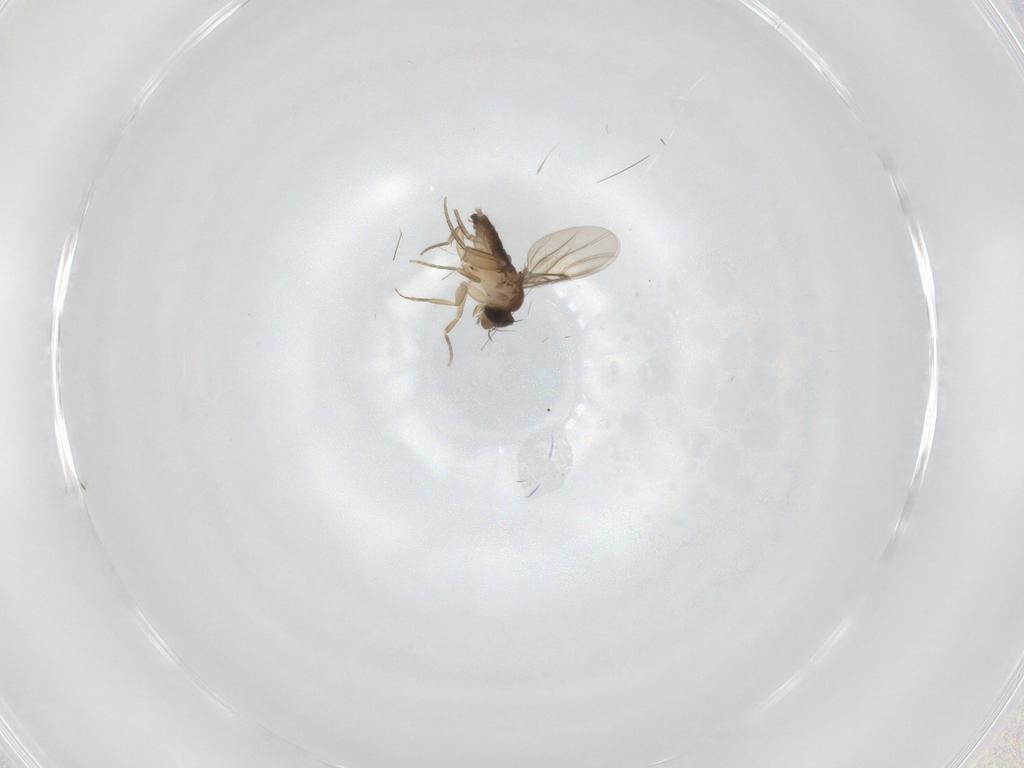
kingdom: Animalia
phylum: Arthropoda
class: Insecta
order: Diptera
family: Phoridae
